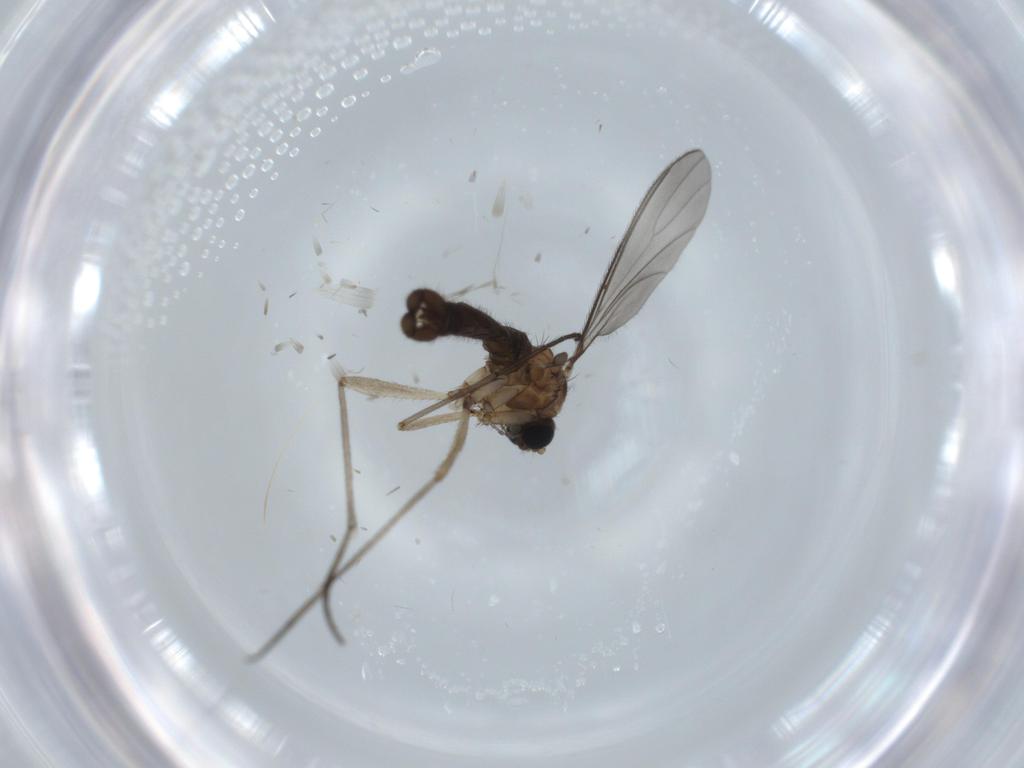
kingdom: Animalia
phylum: Arthropoda
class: Insecta
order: Diptera
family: Sciaridae
